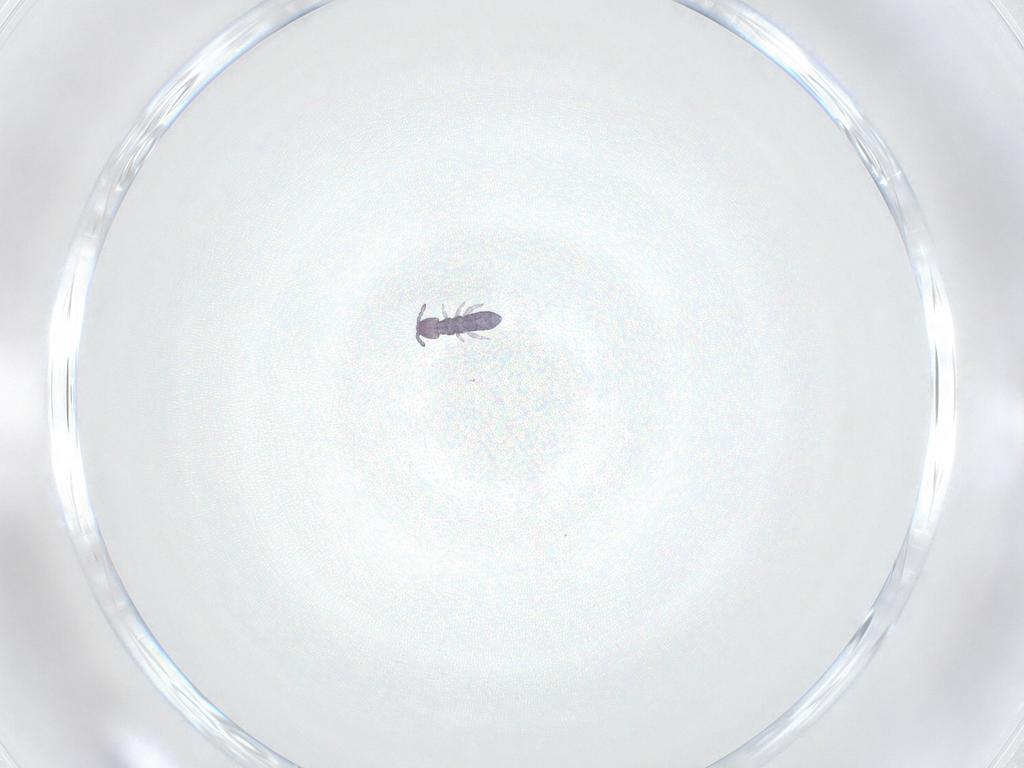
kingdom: Animalia
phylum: Arthropoda
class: Collembola
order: Entomobryomorpha
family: Isotomidae
